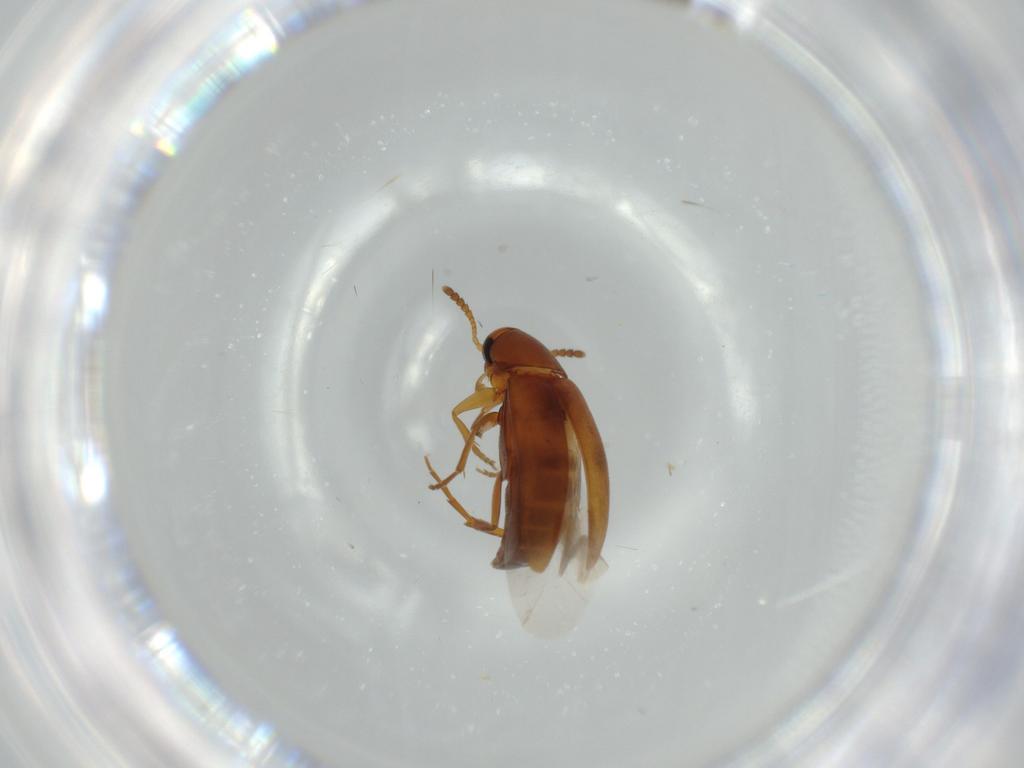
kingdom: Animalia
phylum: Arthropoda
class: Insecta
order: Coleoptera
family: Scraptiidae
